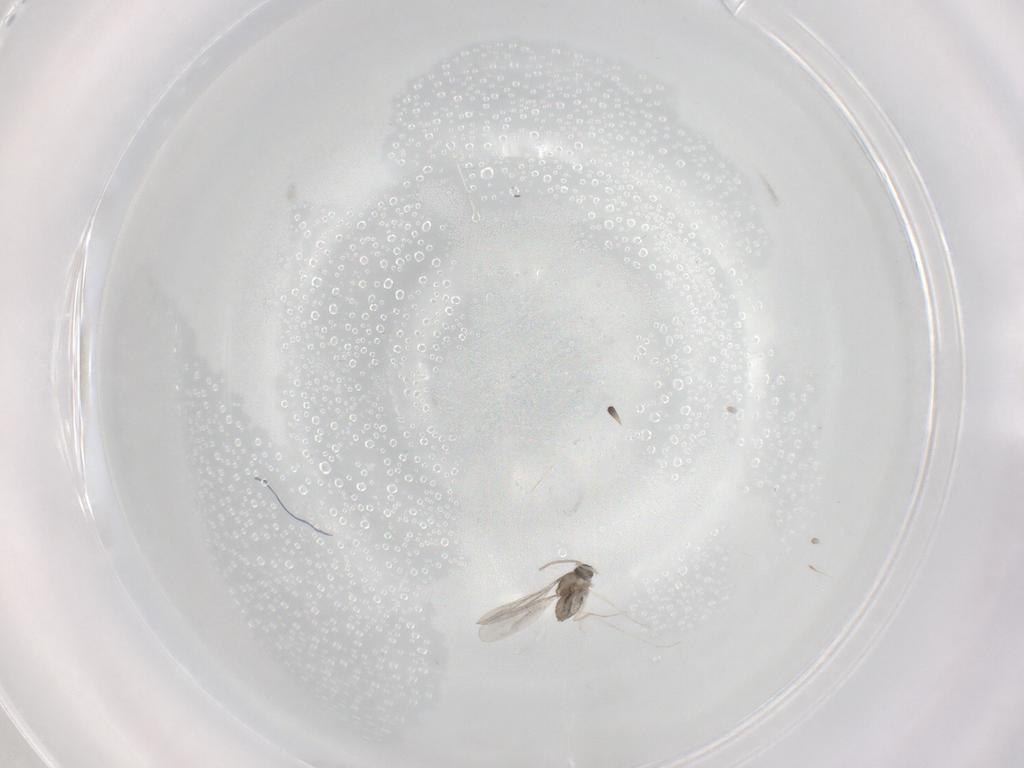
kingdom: Animalia
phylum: Arthropoda
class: Insecta
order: Diptera
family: Cecidomyiidae
